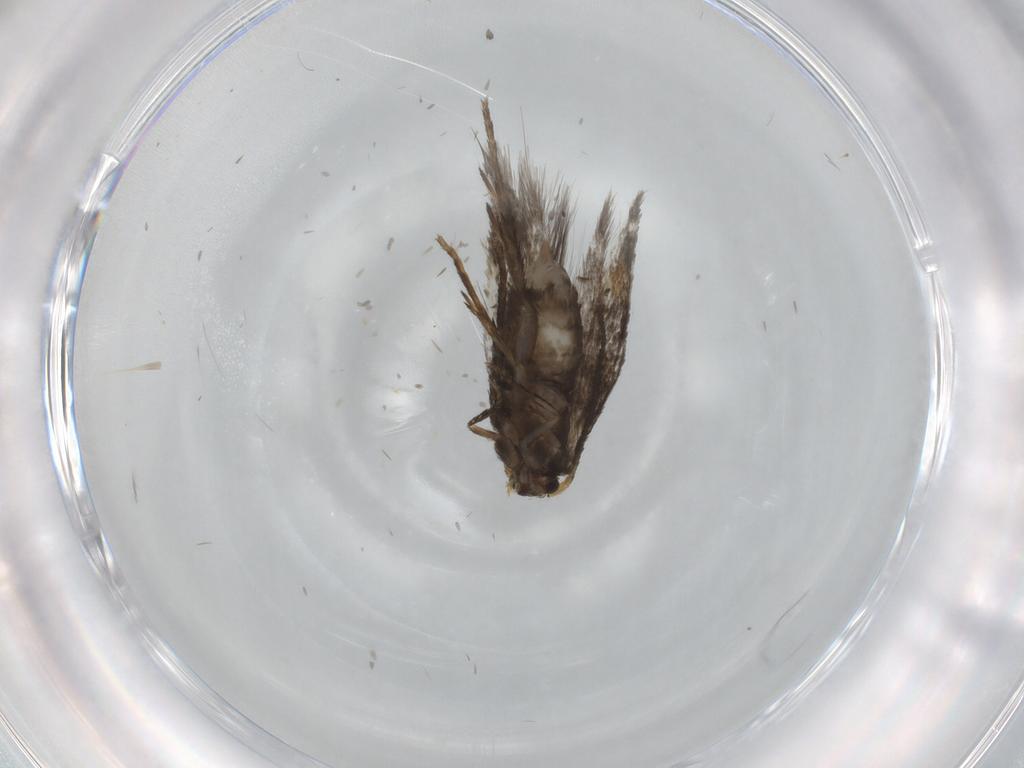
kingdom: Animalia
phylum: Arthropoda
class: Insecta
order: Lepidoptera
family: Nepticulidae
